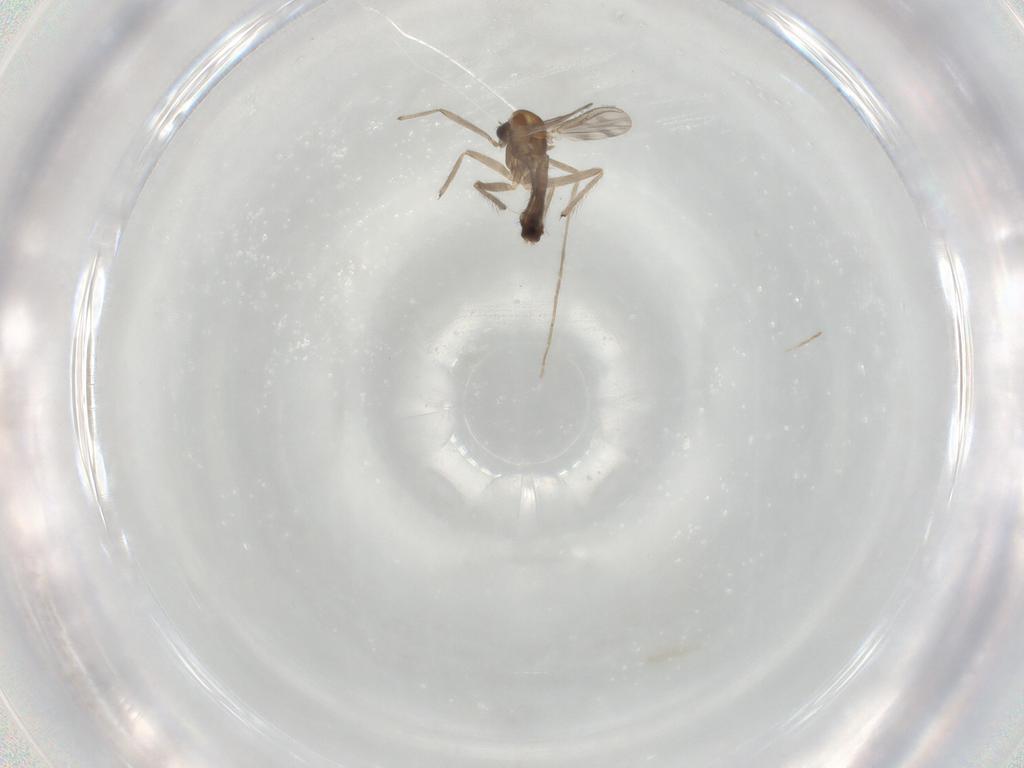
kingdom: Animalia
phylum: Arthropoda
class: Insecta
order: Diptera
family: Chironomidae
